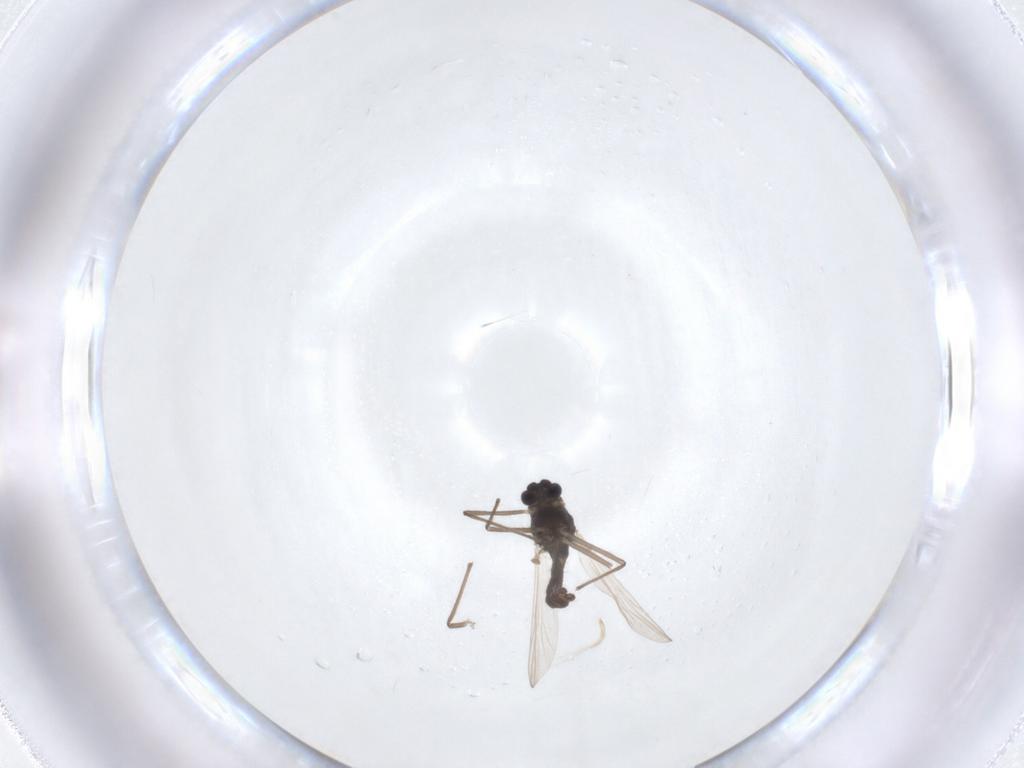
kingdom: Animalia
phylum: Arthropoda
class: Insecta
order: Diptera
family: Chironomidae
